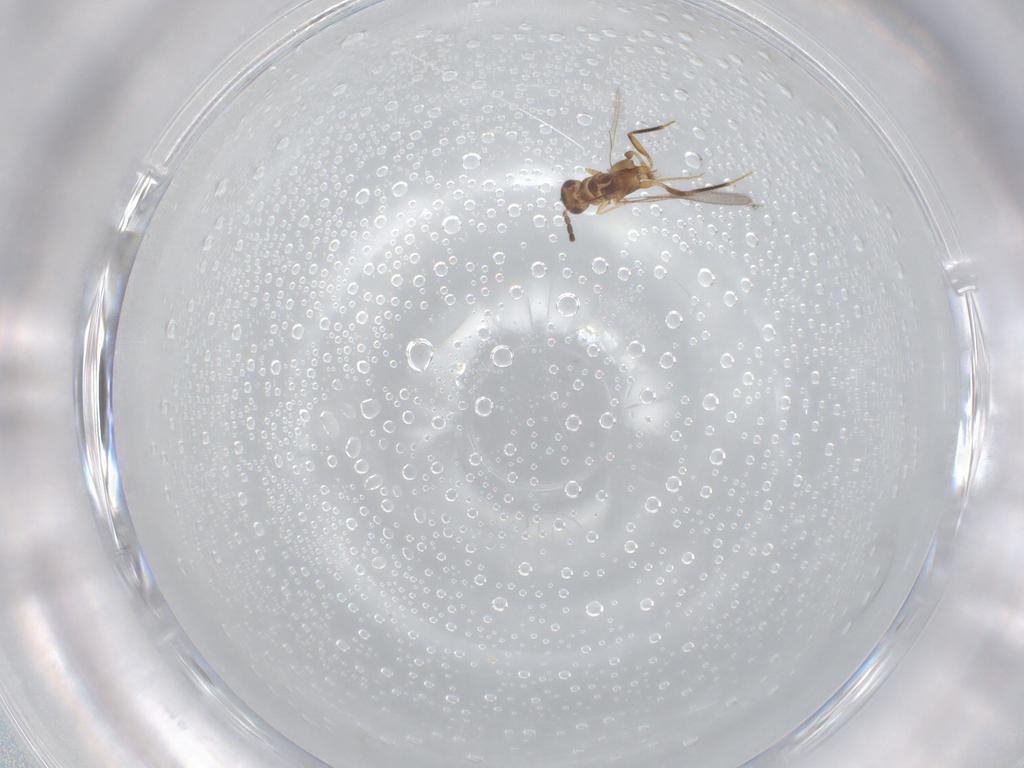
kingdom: Animalia
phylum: Arthropoda
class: Insecta
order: Hymenoptera
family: Mymaridae
